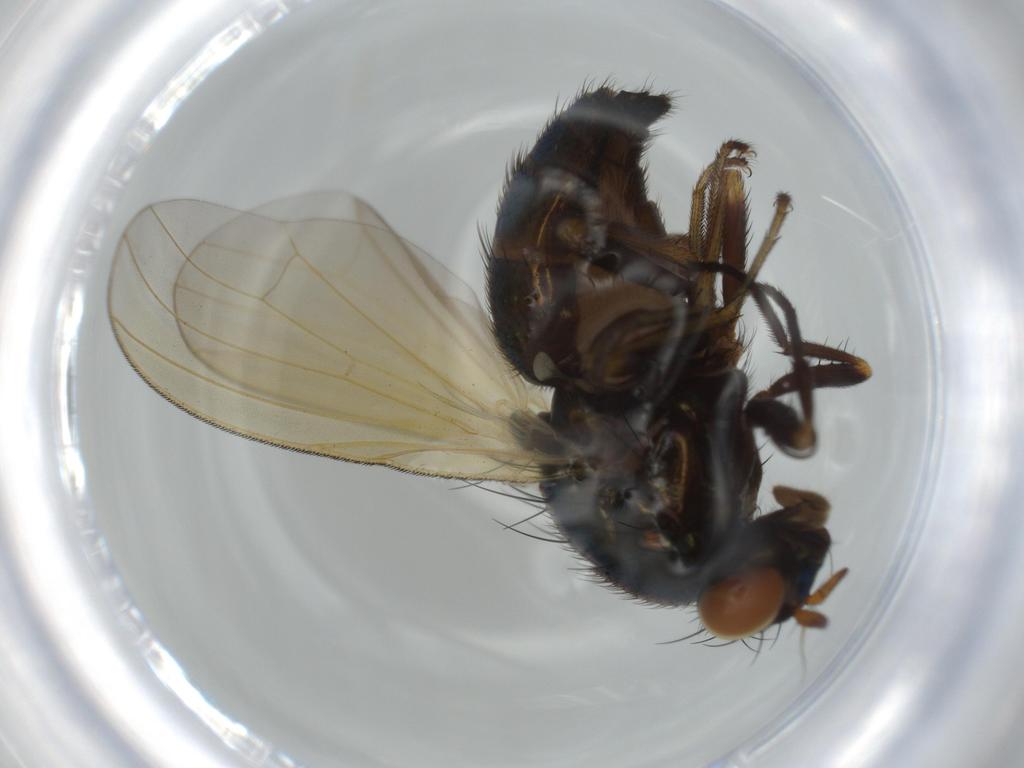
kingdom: Animalia
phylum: Arthropoda
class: Insecta
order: Diptera
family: Lauxaniidae
